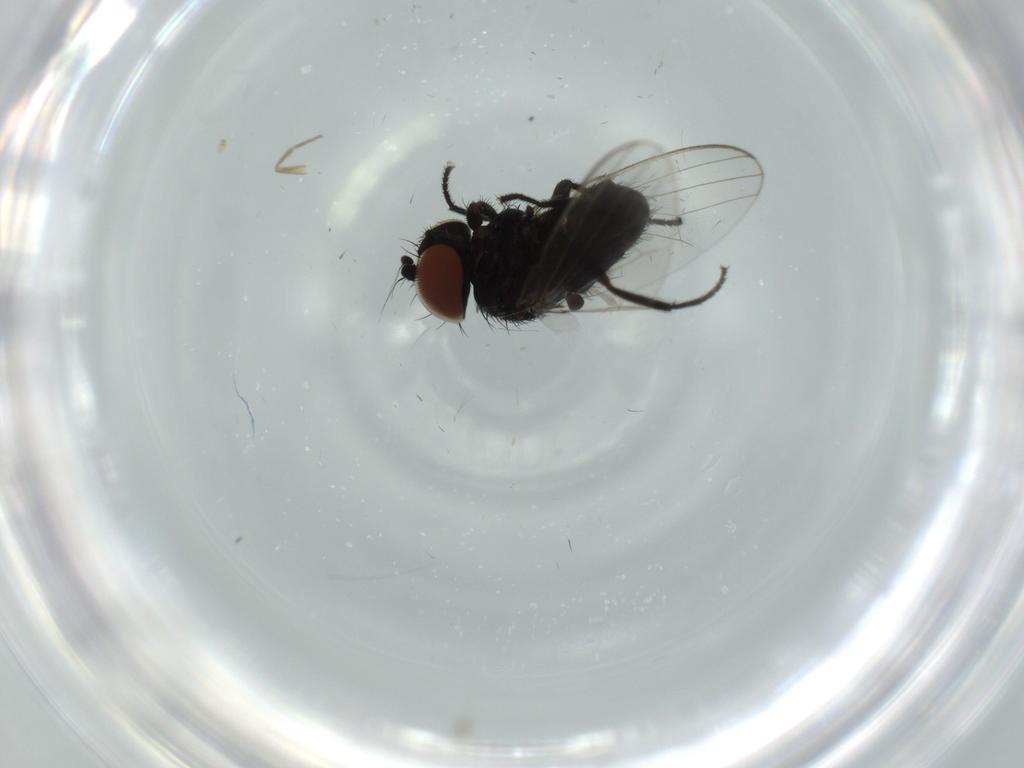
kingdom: Animalia
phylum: Arthropoda
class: Insecta
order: Diptera
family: Milichiidae
